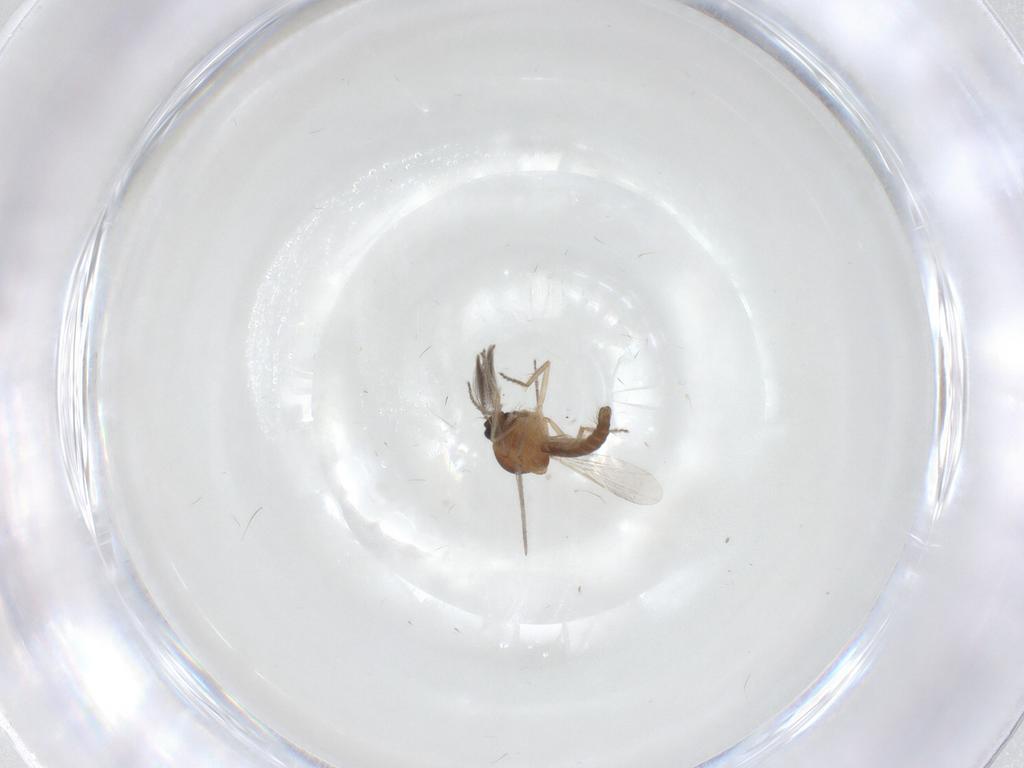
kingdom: Animalia
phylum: Arthropoda
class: Insecta
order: Diptera
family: Ceratopogonidae
